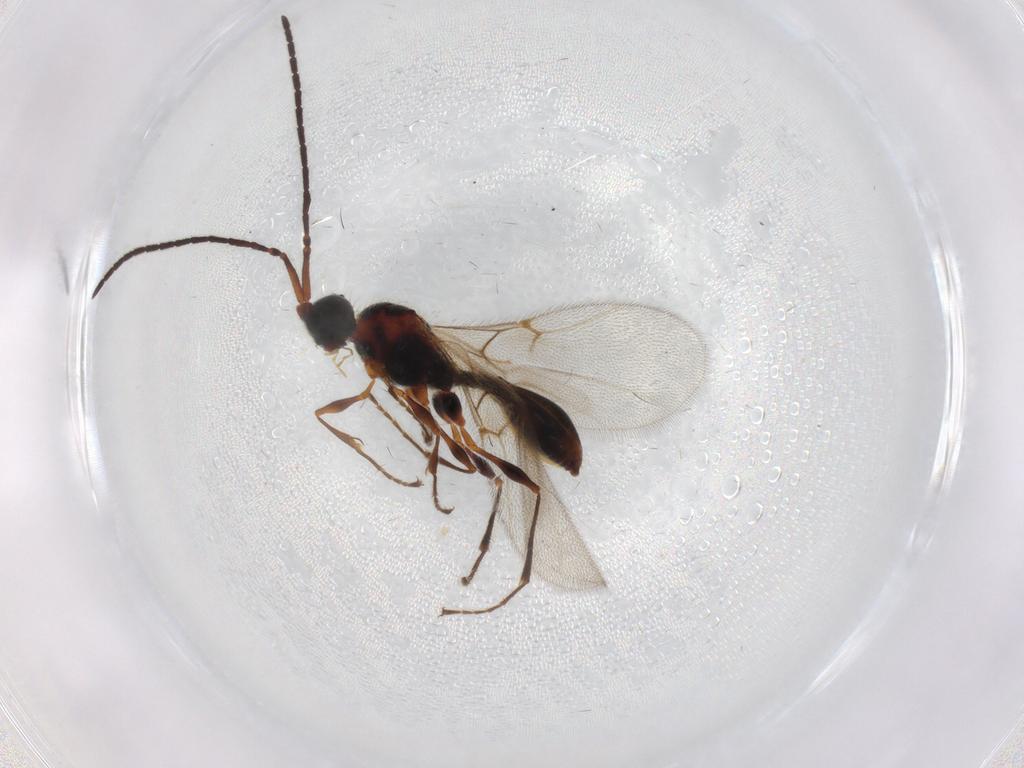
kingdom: Animalia
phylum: Arthropoda
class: Insecta
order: Hymenoptera
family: Diapriidae
